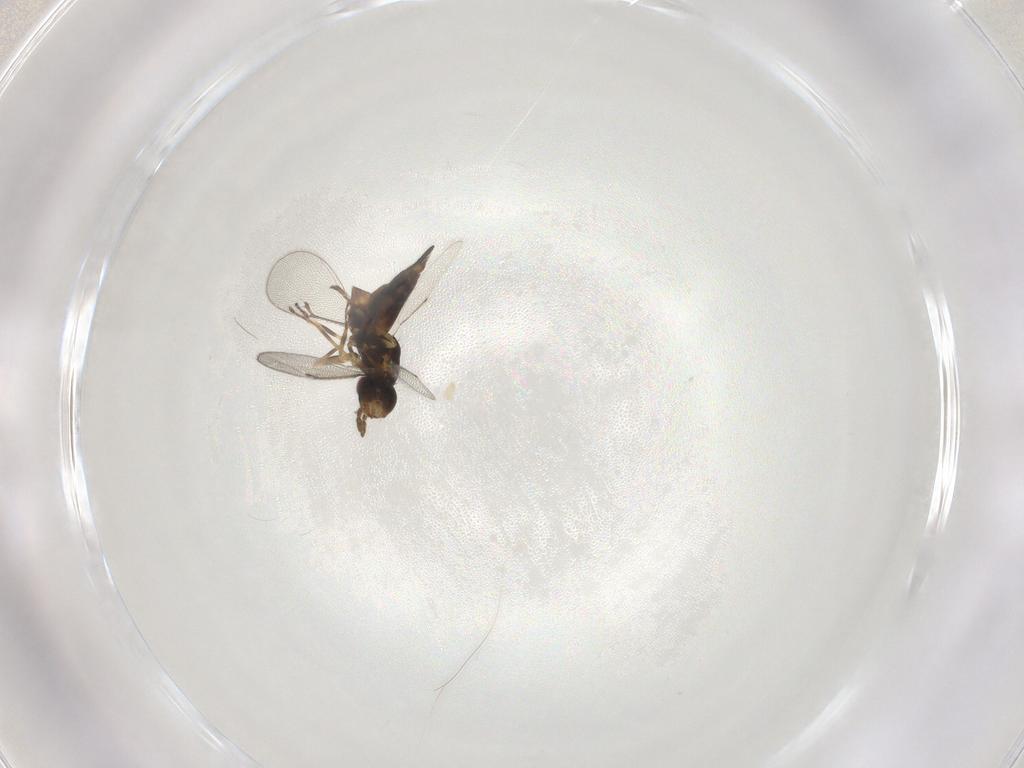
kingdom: Animalia
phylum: Arthropoda
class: Insecta
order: Hymenoptera
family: Eulophidae
